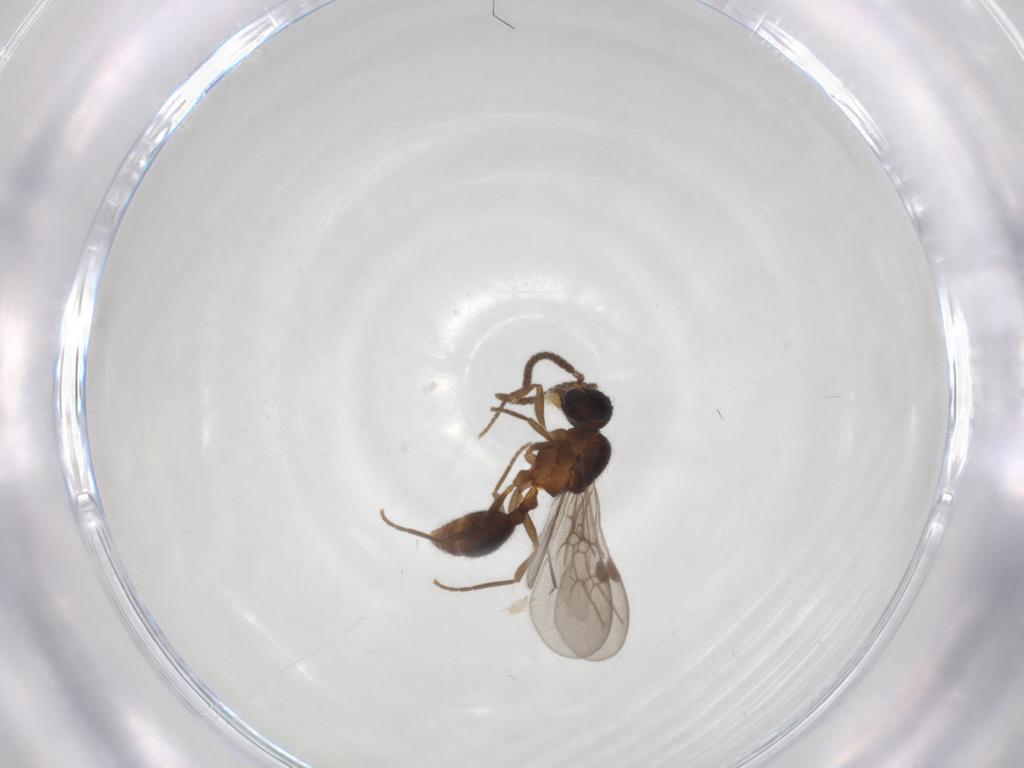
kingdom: Animalia
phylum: Arthropoda
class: Insecta
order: Hymenoptera
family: Formicidae
